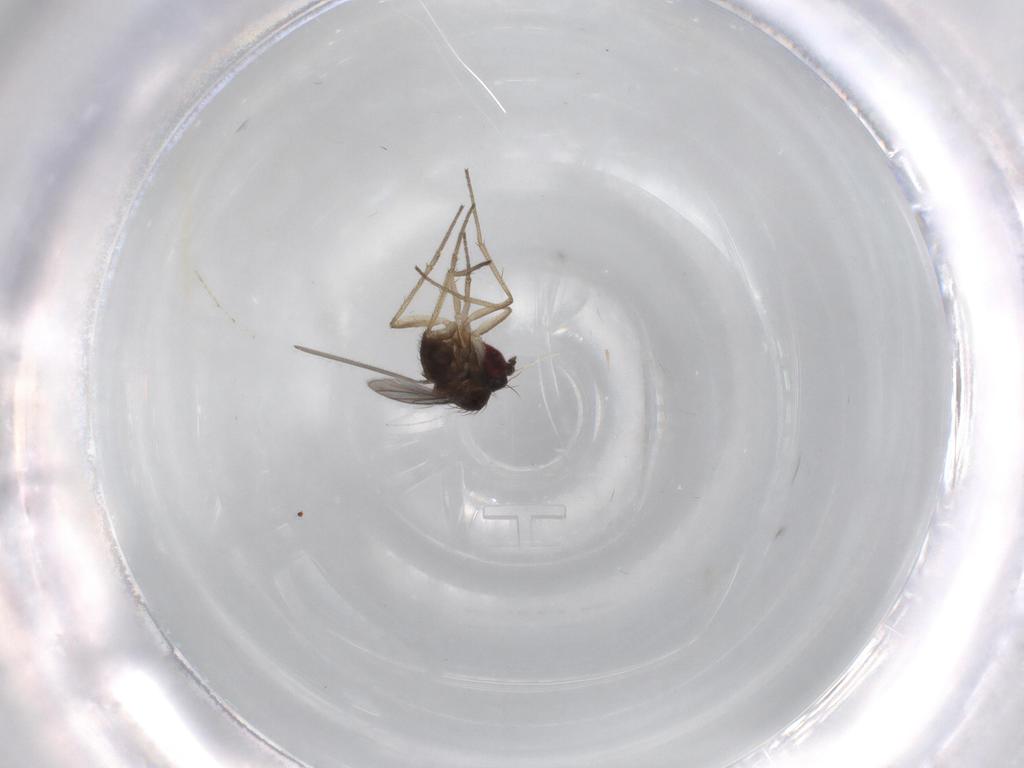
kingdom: Animalia
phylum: Arthropoda
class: Insecta
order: Diptera
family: Dolichopodidae
